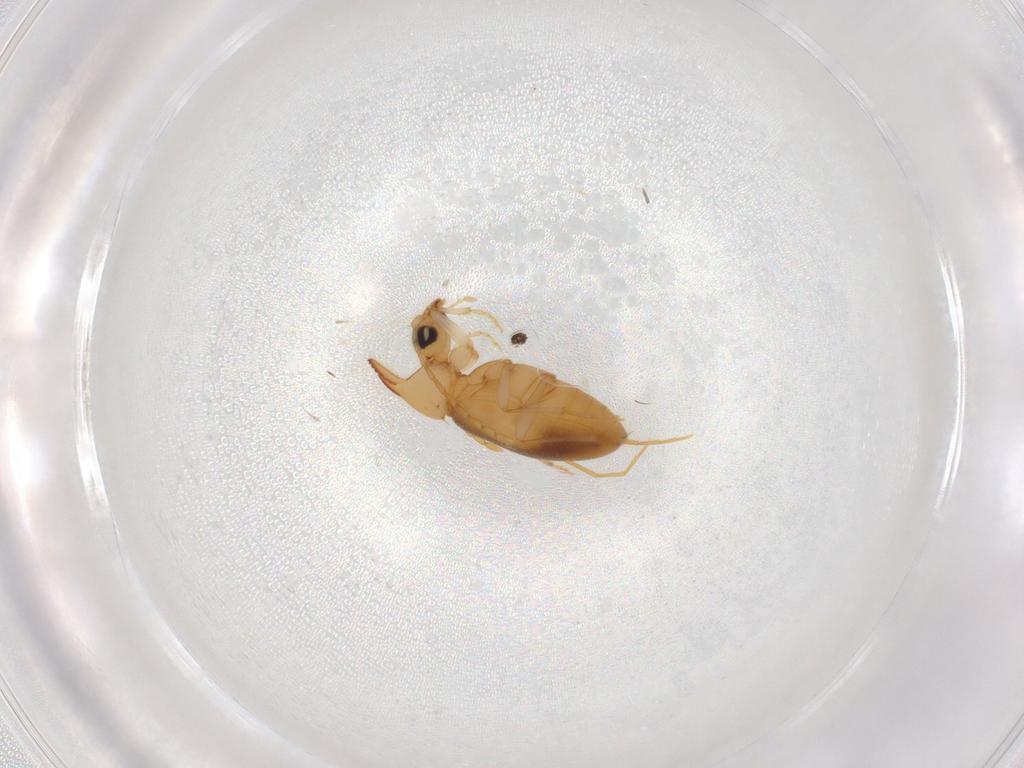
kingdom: Animalia
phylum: Arthropoda
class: Insecta
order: Coleoptera
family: Anthicidae
